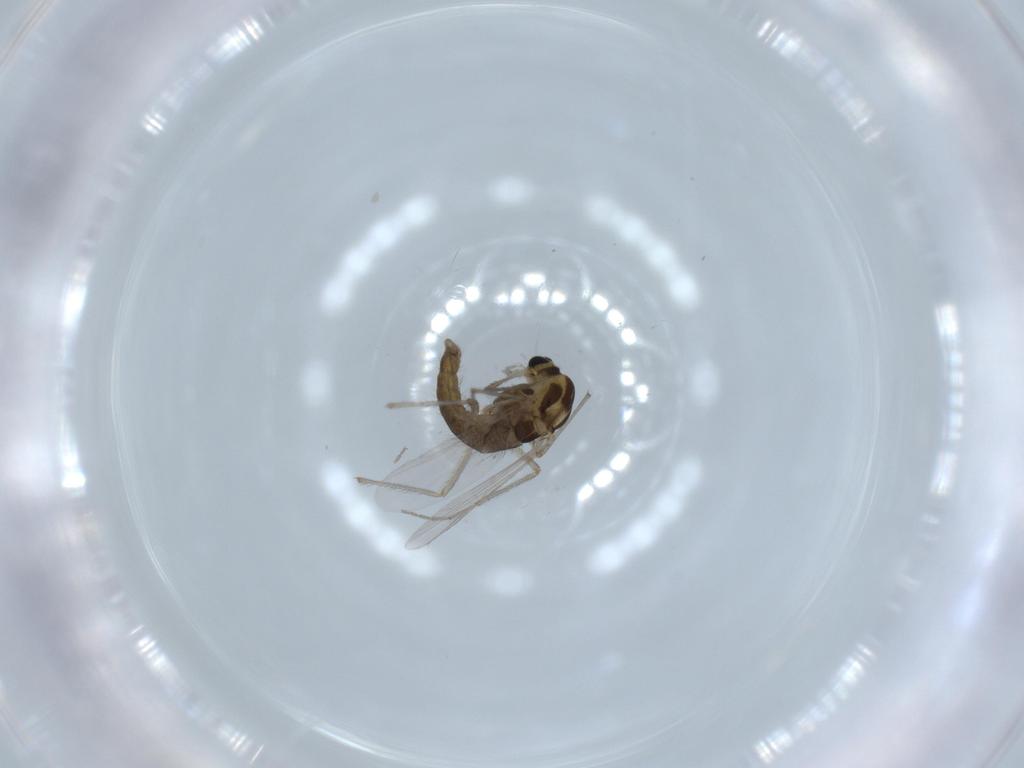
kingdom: Animalia
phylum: Arthropoda
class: Insecta
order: Diptera
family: Chironomidae
